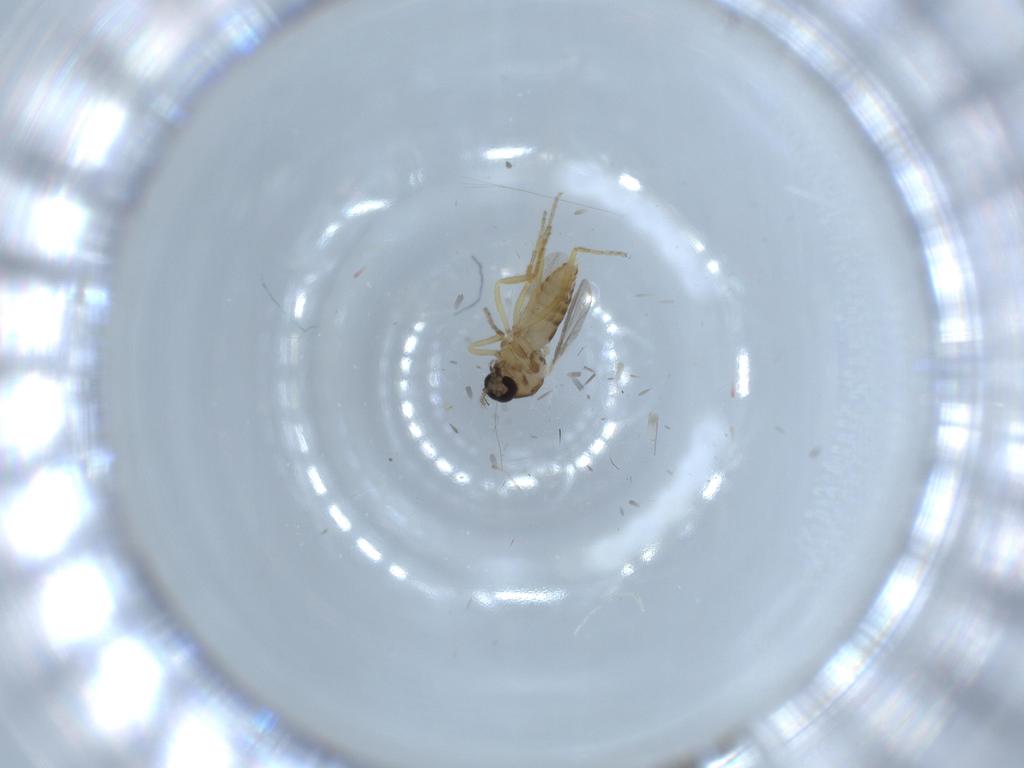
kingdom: Animalia
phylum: Arthropoda
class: Insecta
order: Diptera
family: Ceratopogonidae
